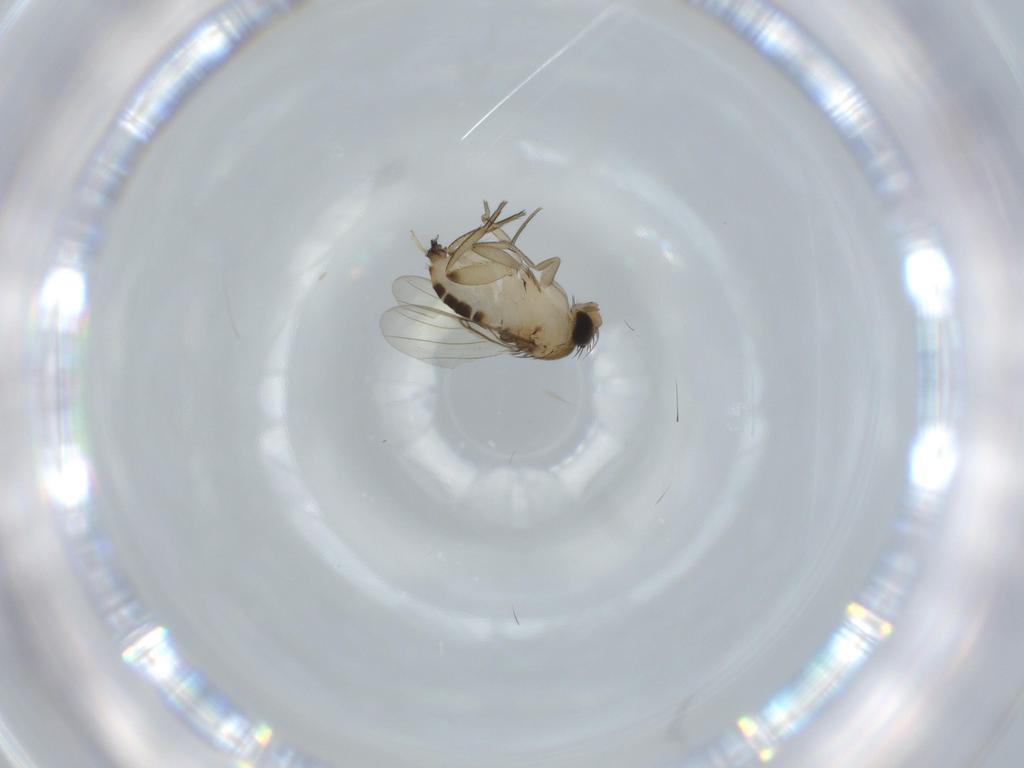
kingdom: Animalia
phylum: Arthropoda
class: Insecta
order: Diptera
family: Phoridae
